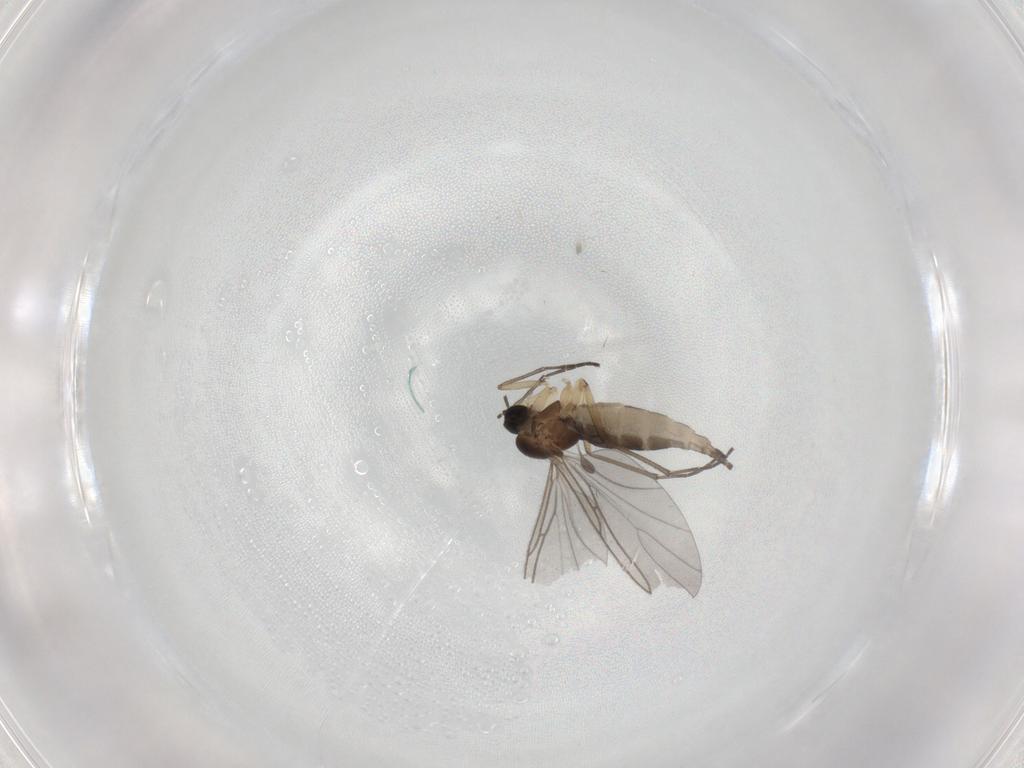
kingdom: Animalia
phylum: Arthropoda
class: Insecta
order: Diptera
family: Sciaridae
